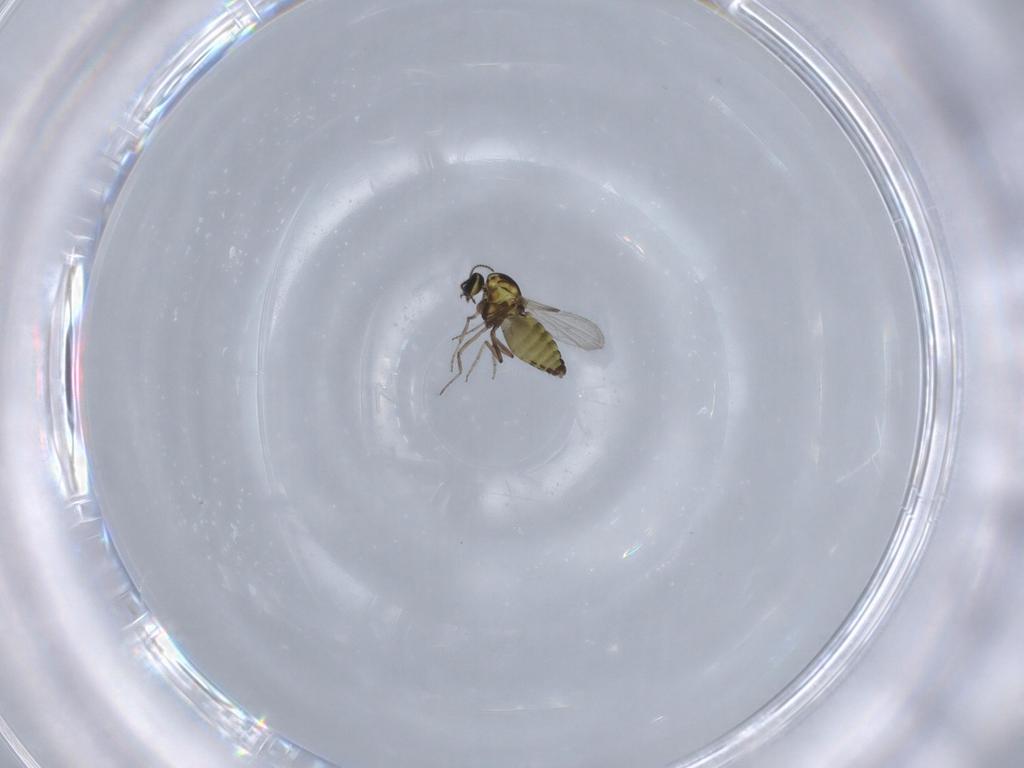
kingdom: Animalia
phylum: Arthropoda
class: Insecta
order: Diptera
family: Ceratopogonidae
